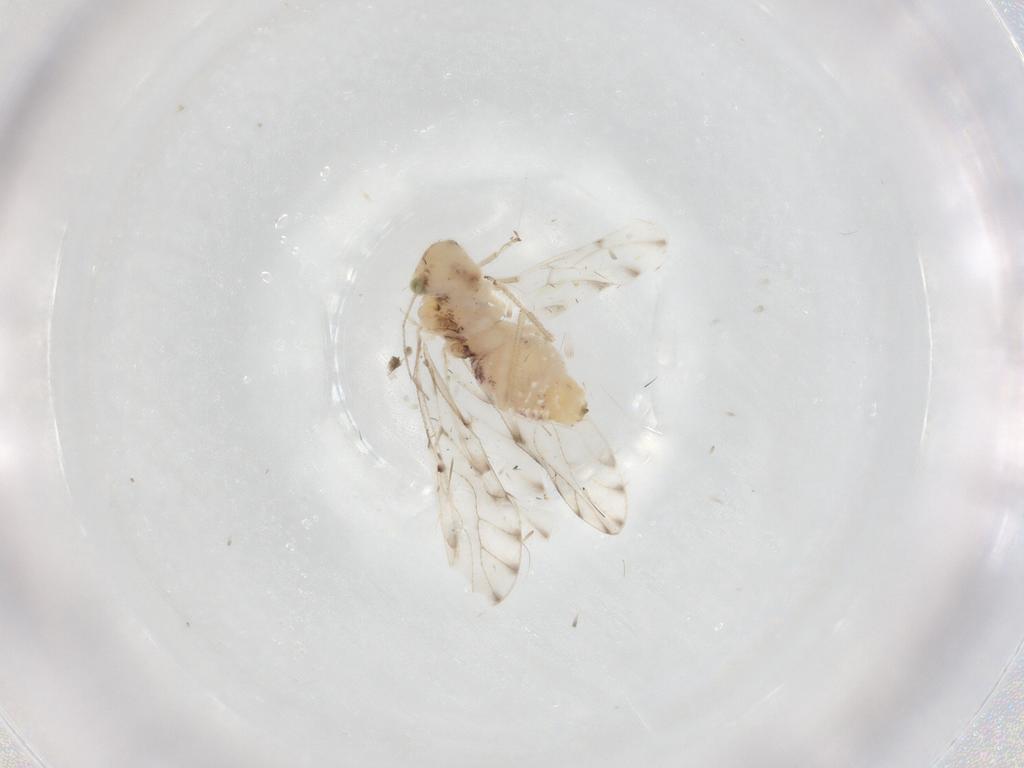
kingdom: Animalia
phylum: Arthropoda
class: Insecta
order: Psocodea
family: Ectopsocidae
